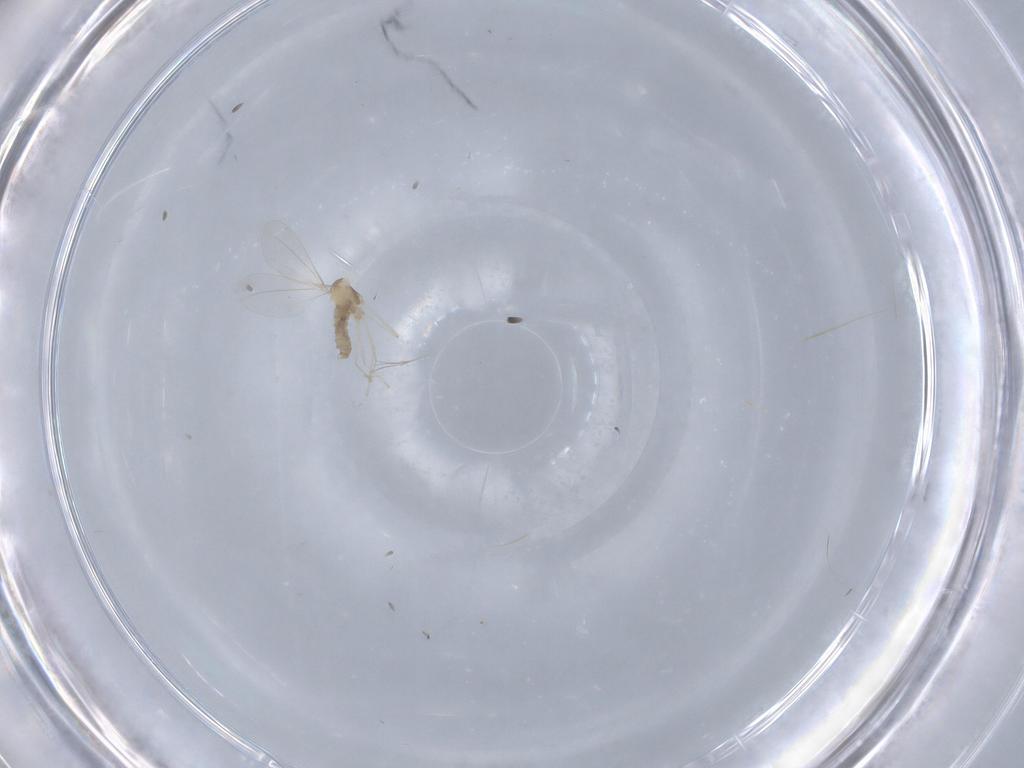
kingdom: Animalia
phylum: Arthropoda
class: Insecta
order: Diptera
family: Cecidomyiidae
